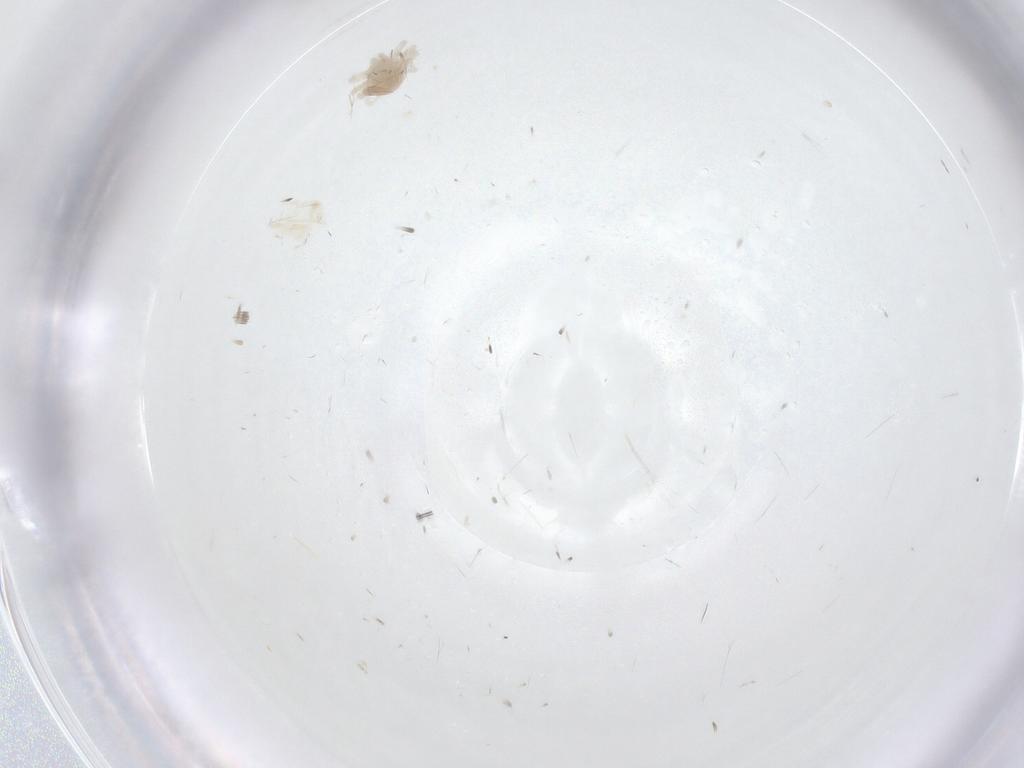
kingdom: Animalia
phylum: Arthropoda
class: Arachnida
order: Trombidiformes
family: Anystidae
